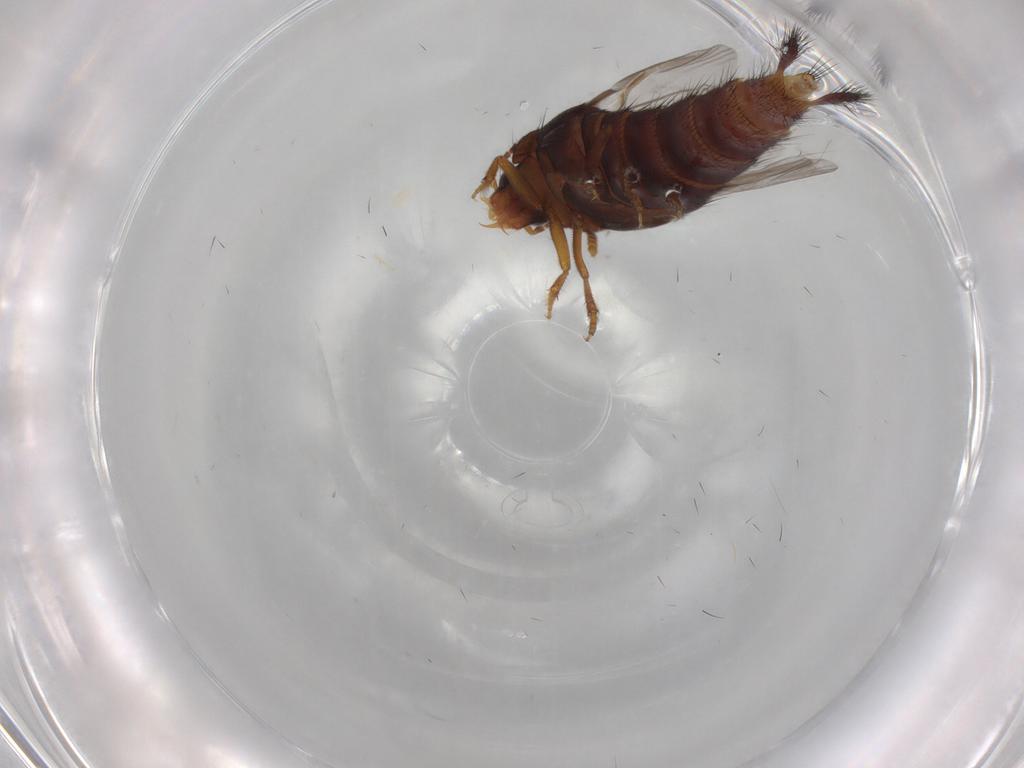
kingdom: Animalia
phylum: Arthropoda
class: Insecta
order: Coleoptera
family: Staphylinidae
